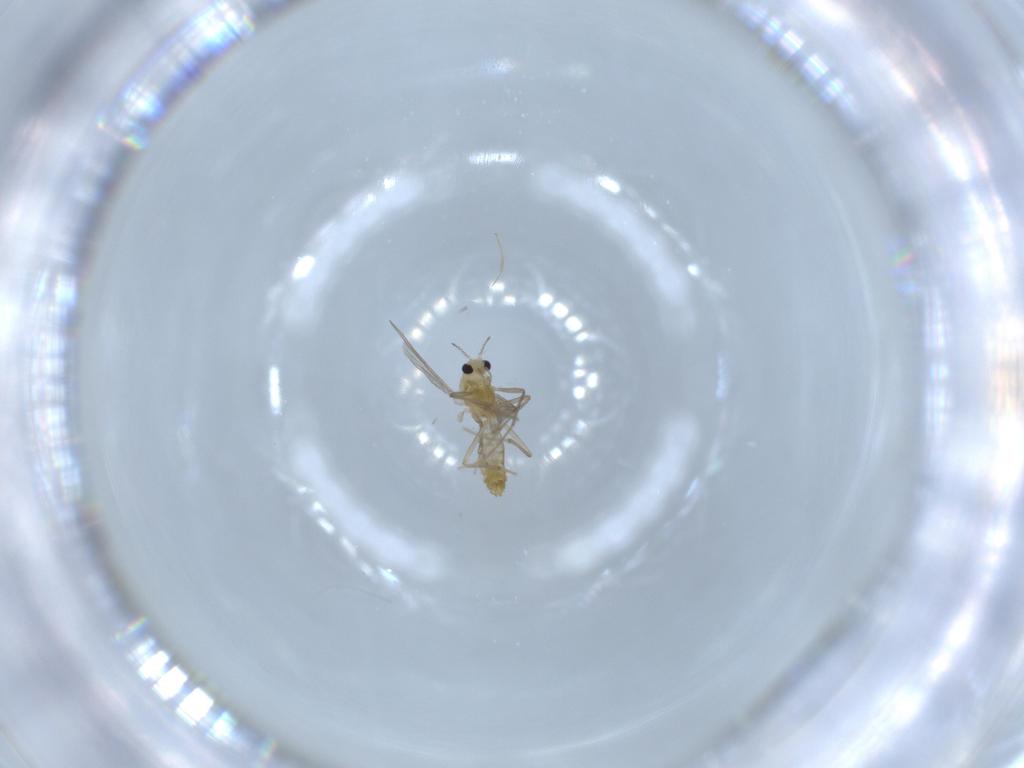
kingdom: Animalia
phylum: Arthropoda
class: Insecta
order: Diptera
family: Chironomidae
